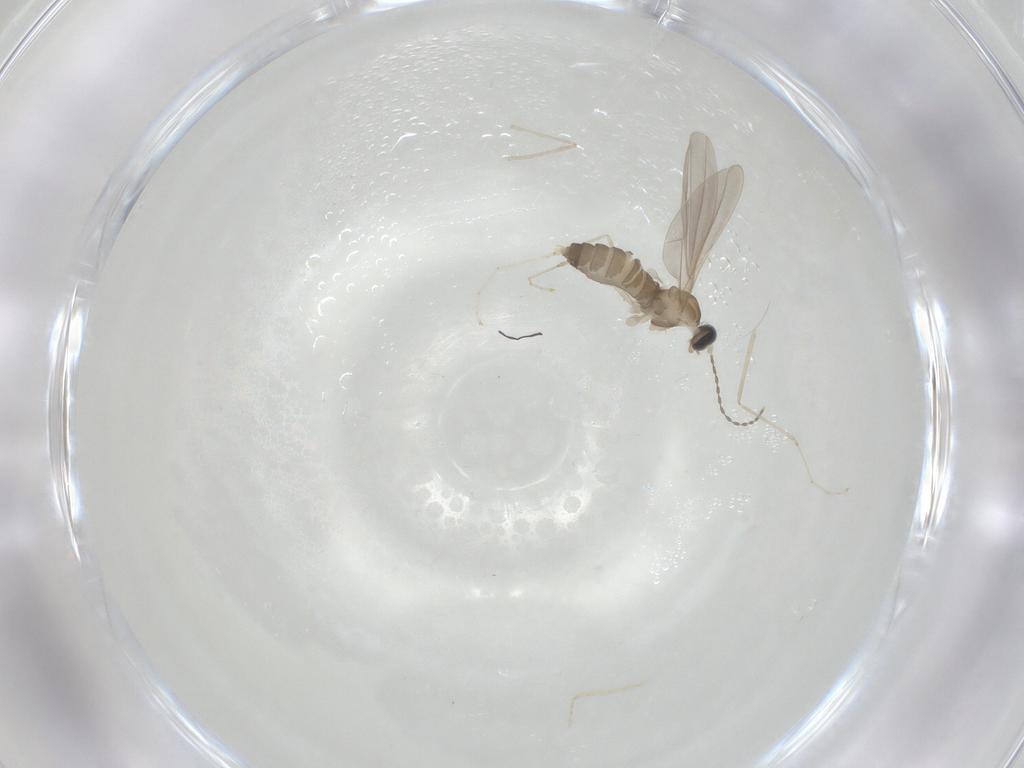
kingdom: Animalia
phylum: Arthropoda
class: Insecta
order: Diptera
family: Cecidomyiidae
